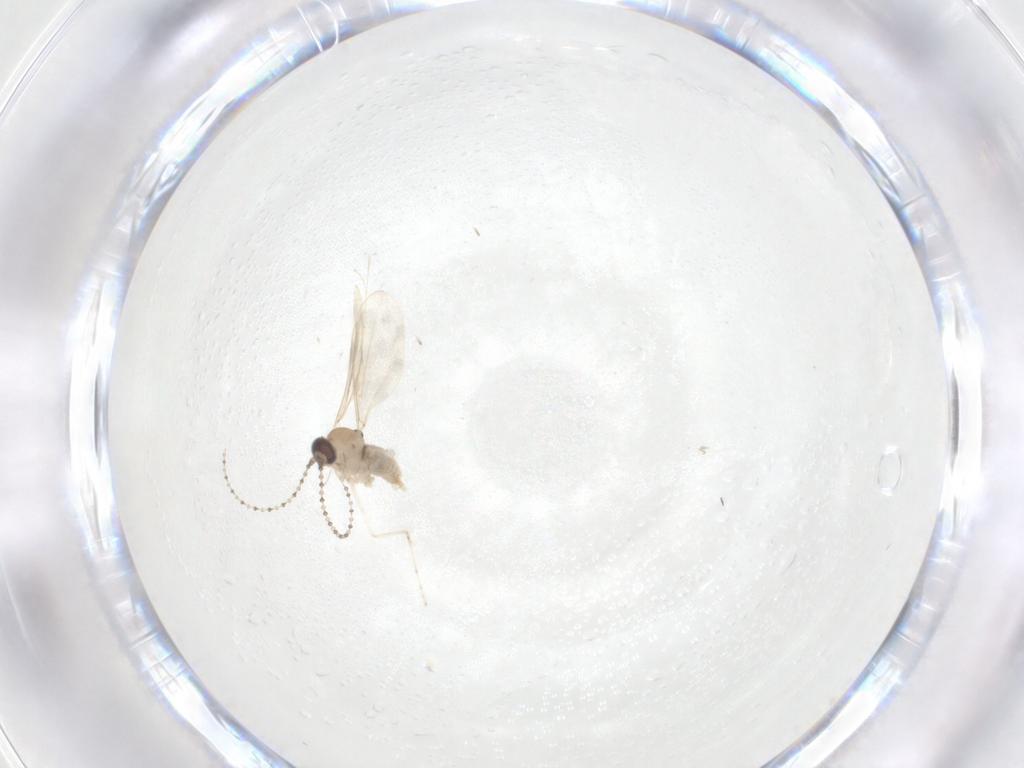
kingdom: Animalia
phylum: Arthropoda
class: Insecta
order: Diptera
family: Cecidomyiidae
